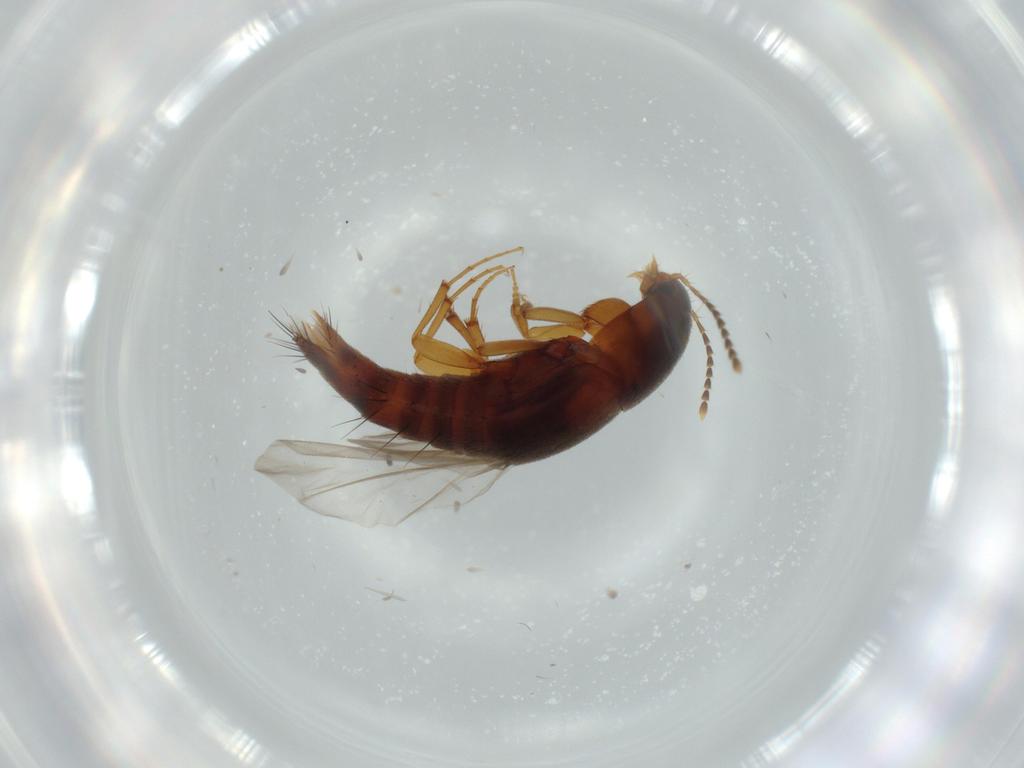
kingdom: Animalia
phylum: Arthropoda
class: Insecta
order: Coleoptera
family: Staphylinidae
